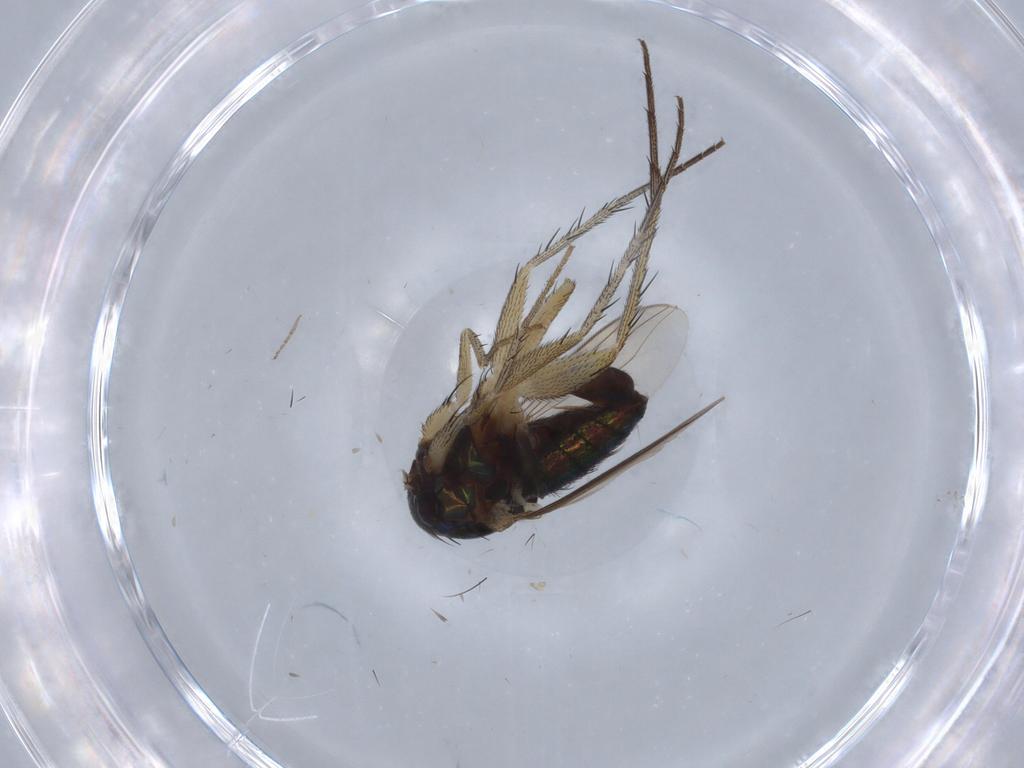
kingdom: Animalia
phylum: Arthropoda
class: Insecta
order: Diptera
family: Dolichopodidae
